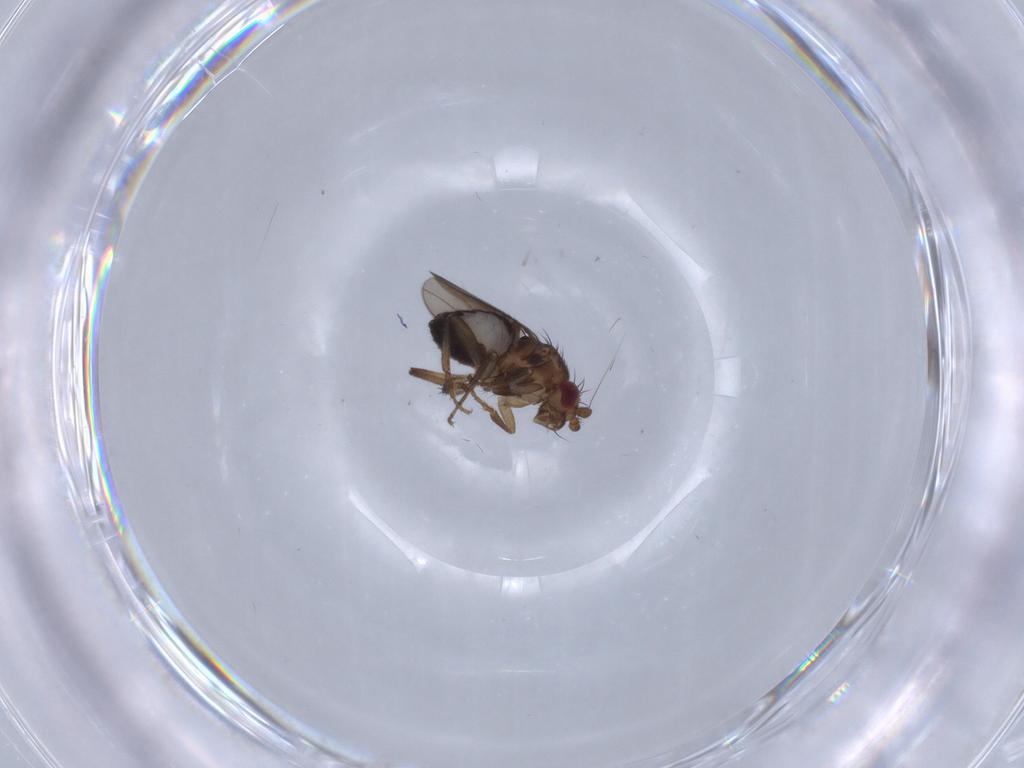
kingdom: Animalia
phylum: Arthropoda
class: Insecta
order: Diptera
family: Sphaeroceridae
